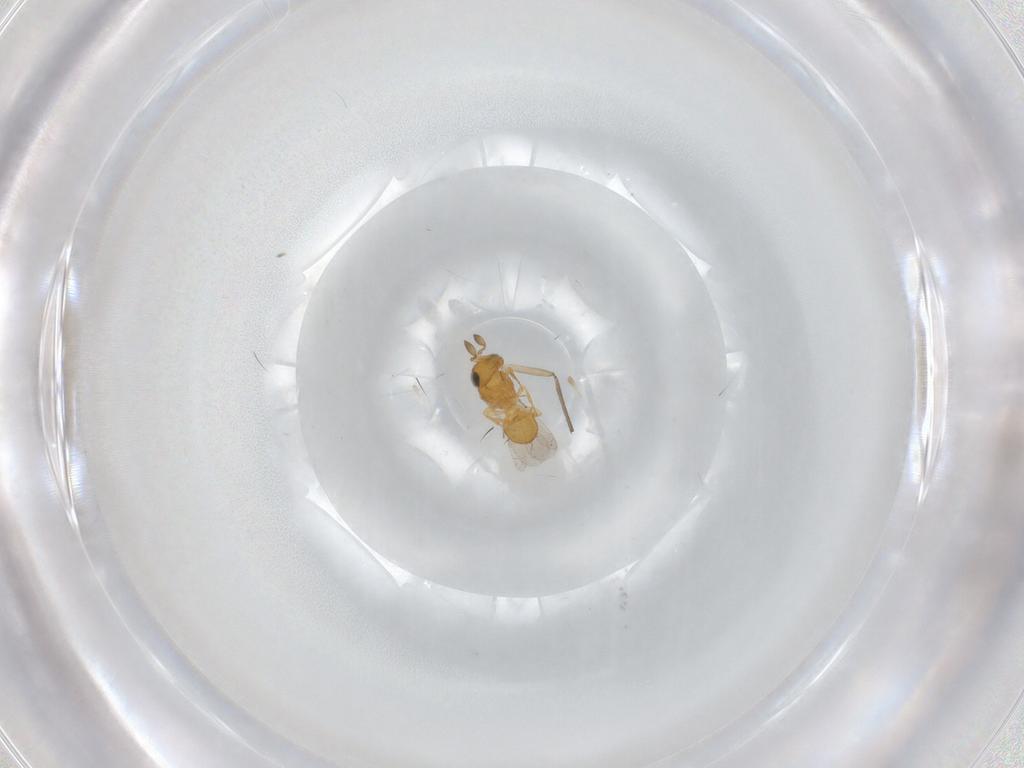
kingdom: Animalia
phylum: Arthropoda
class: Insecta
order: Hymenoptera
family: Scelionidae
